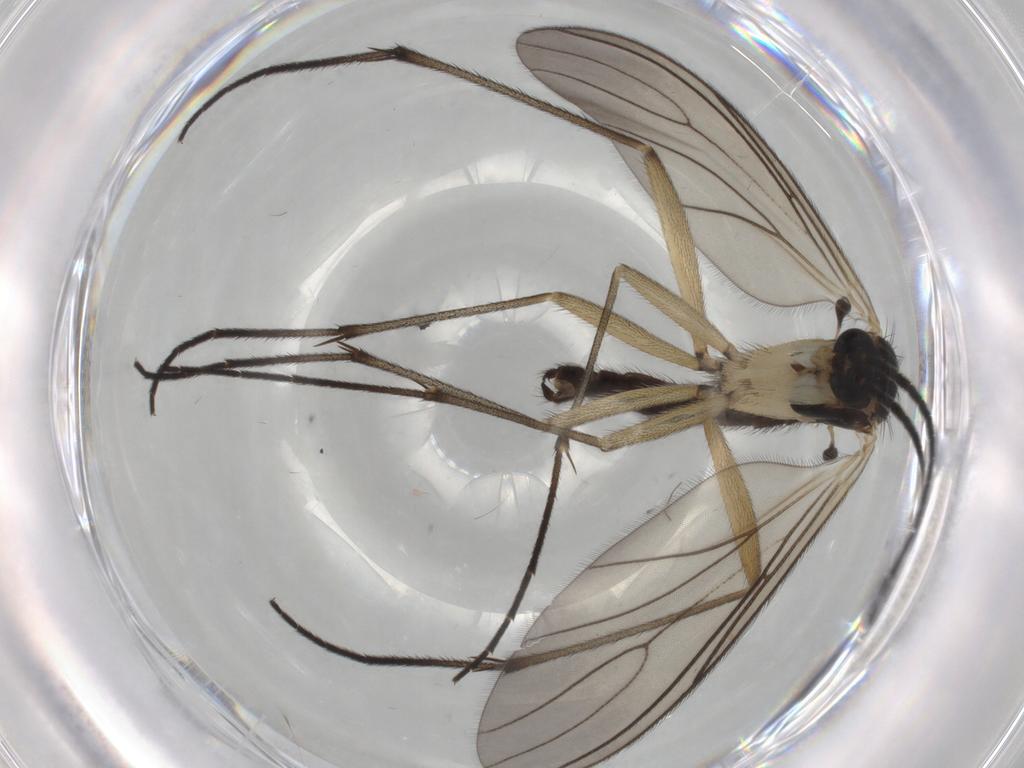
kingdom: Animalia
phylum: Arthropoda
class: Insecta
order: Diptera
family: Sciaridae
